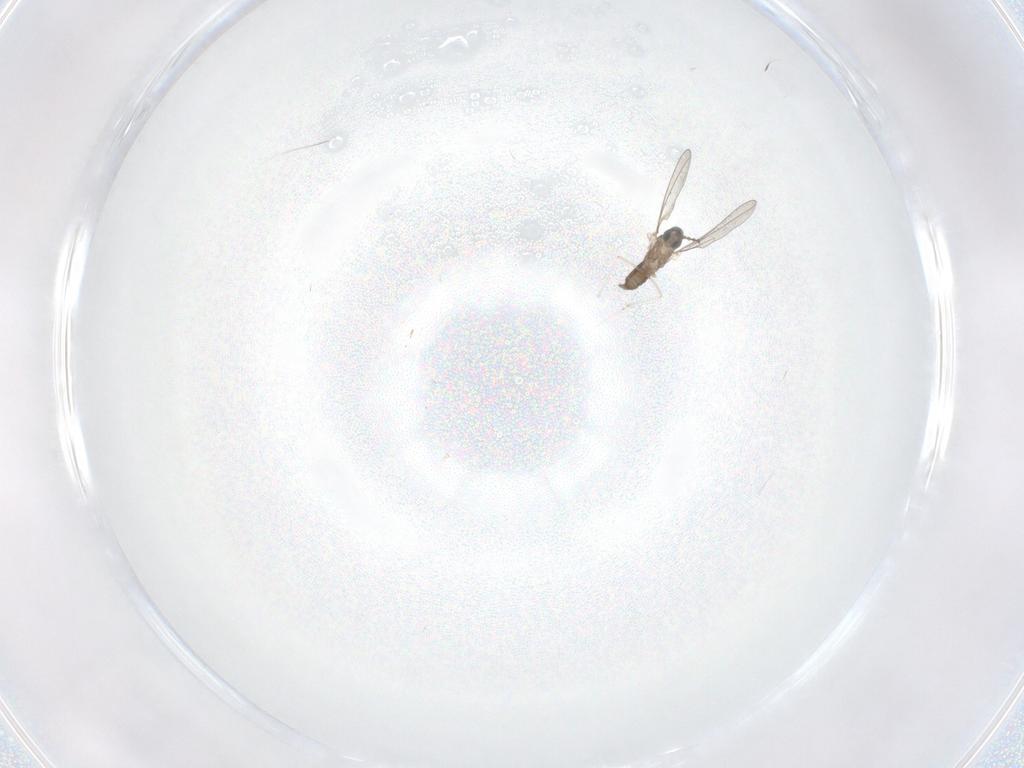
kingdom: Animalia
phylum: Arthropoda
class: Insecta
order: Diptera
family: Cecidomyiidae
